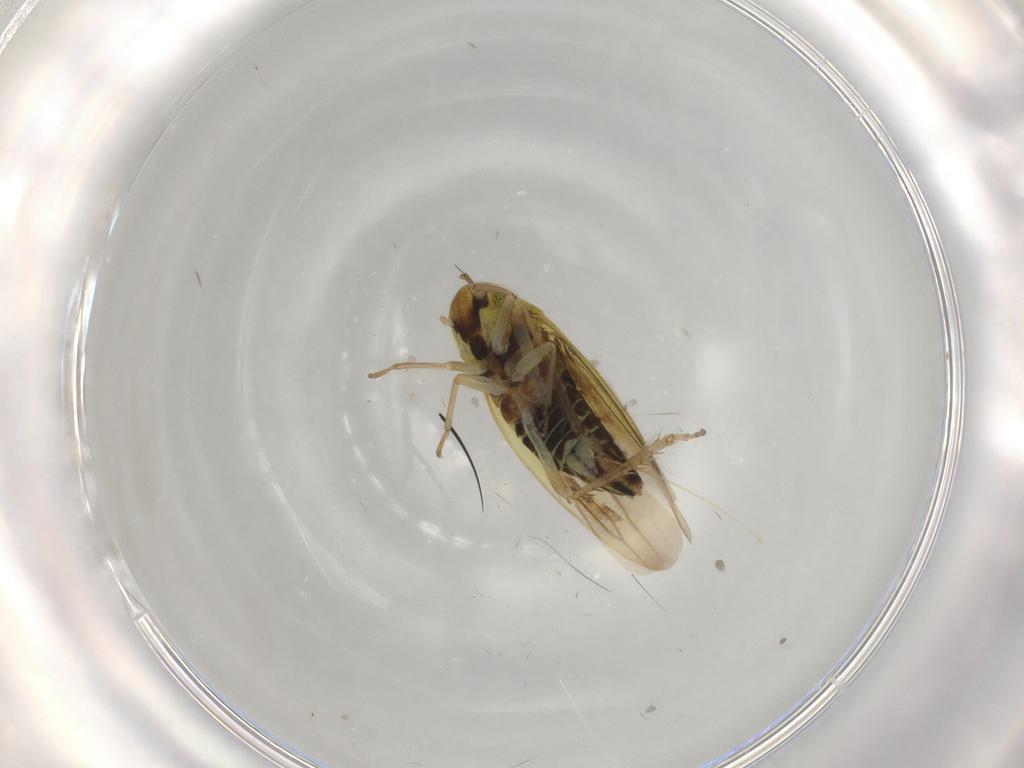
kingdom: Animalia
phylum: Arthropoda
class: Insecta
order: Hemiptera
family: Cicadellidae
